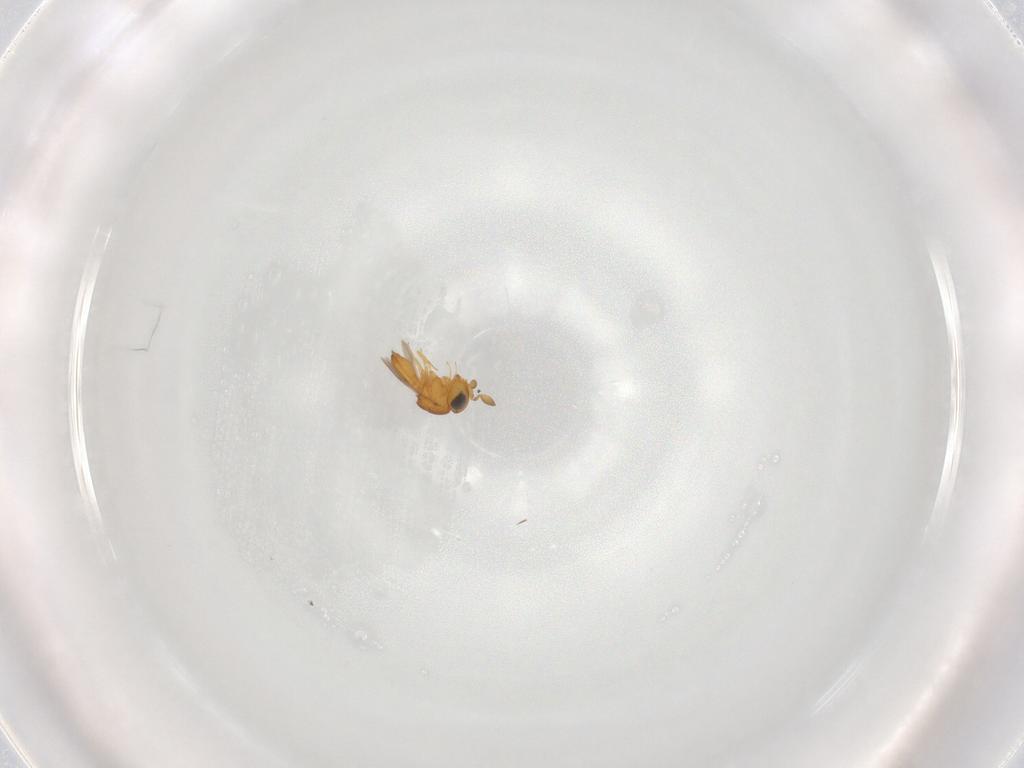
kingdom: Animalia
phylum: Arthropoda
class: Insecta
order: Hymenoptera
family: Scelionidae
